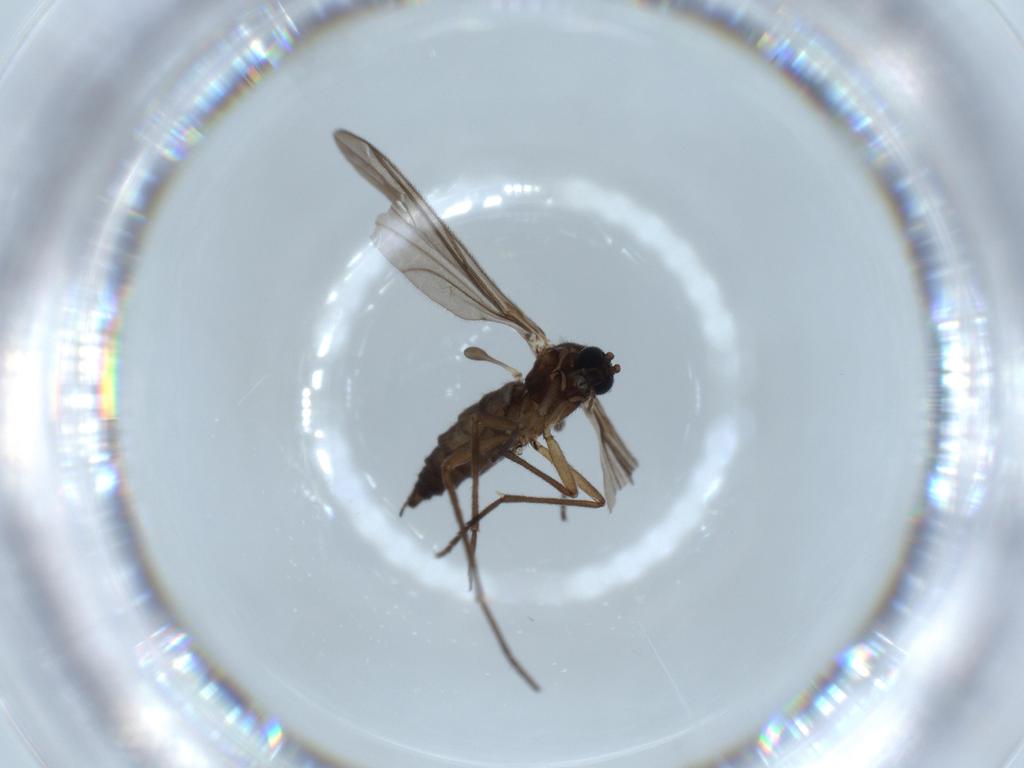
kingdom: Animalia
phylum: Arthropoda
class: Insecta
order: Diptera
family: Sciaridae
